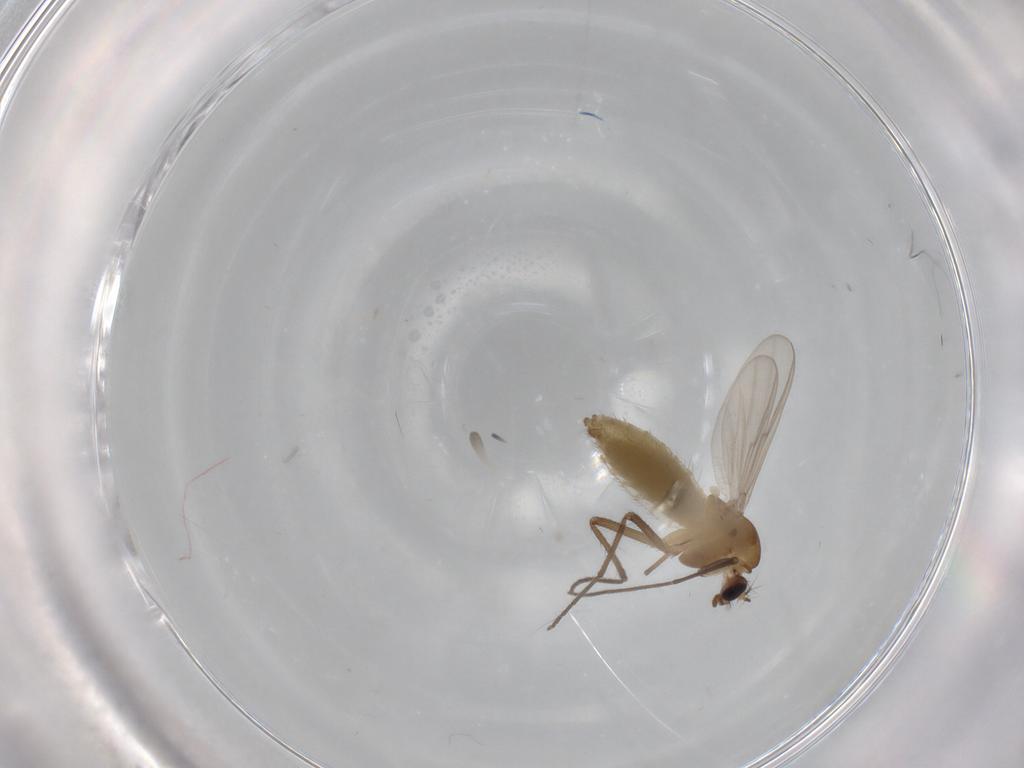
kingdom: Animalia
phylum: Arthropoda
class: Insecta
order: Diptera
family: Chironomidae
